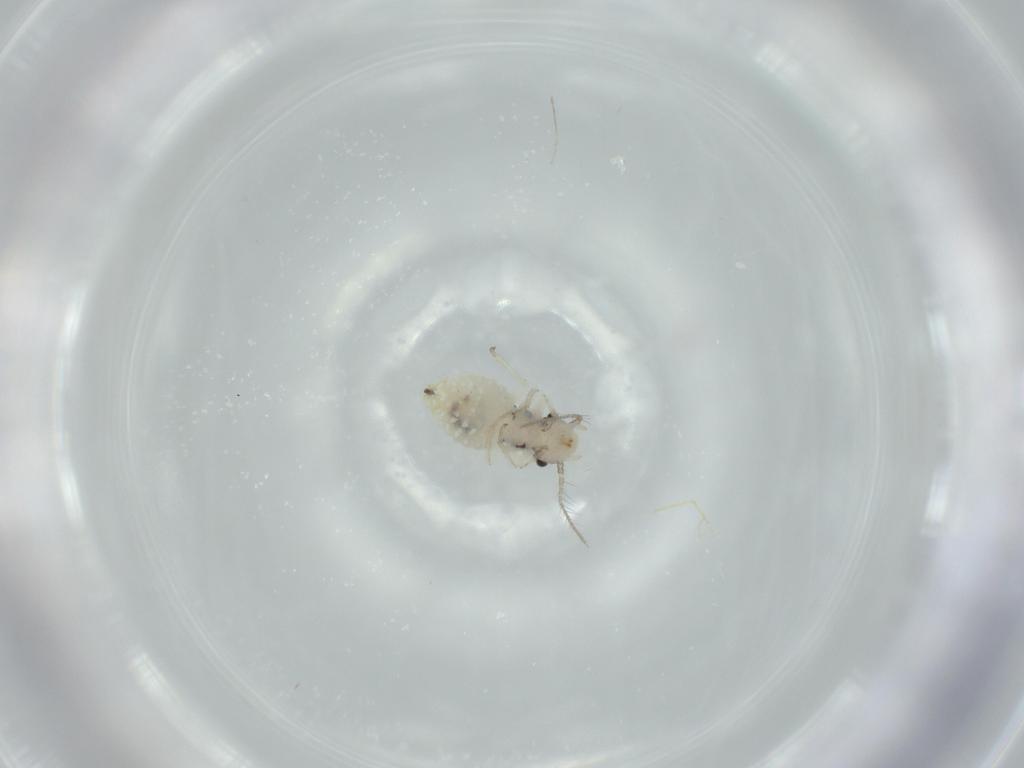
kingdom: Animalia
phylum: Arthropoda
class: Insecta
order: Psocodea
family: Pseudocaeciliidae
